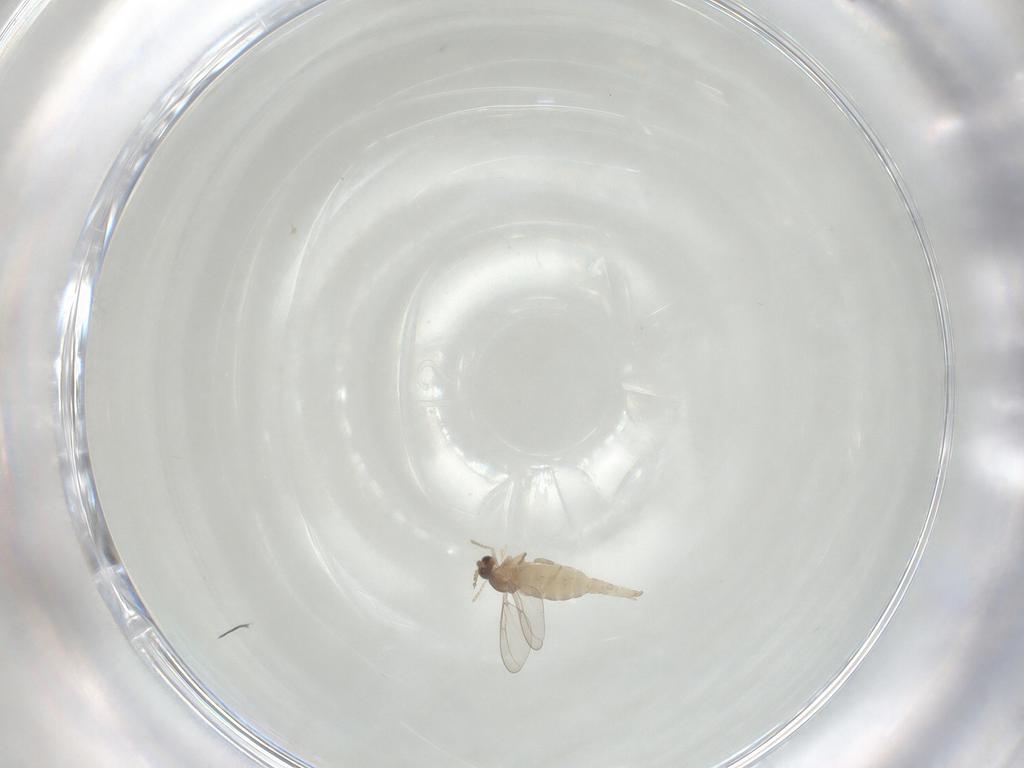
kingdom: Animalia
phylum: Arthropoda
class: Insecta
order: Diptera
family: Cecidomyiidae
